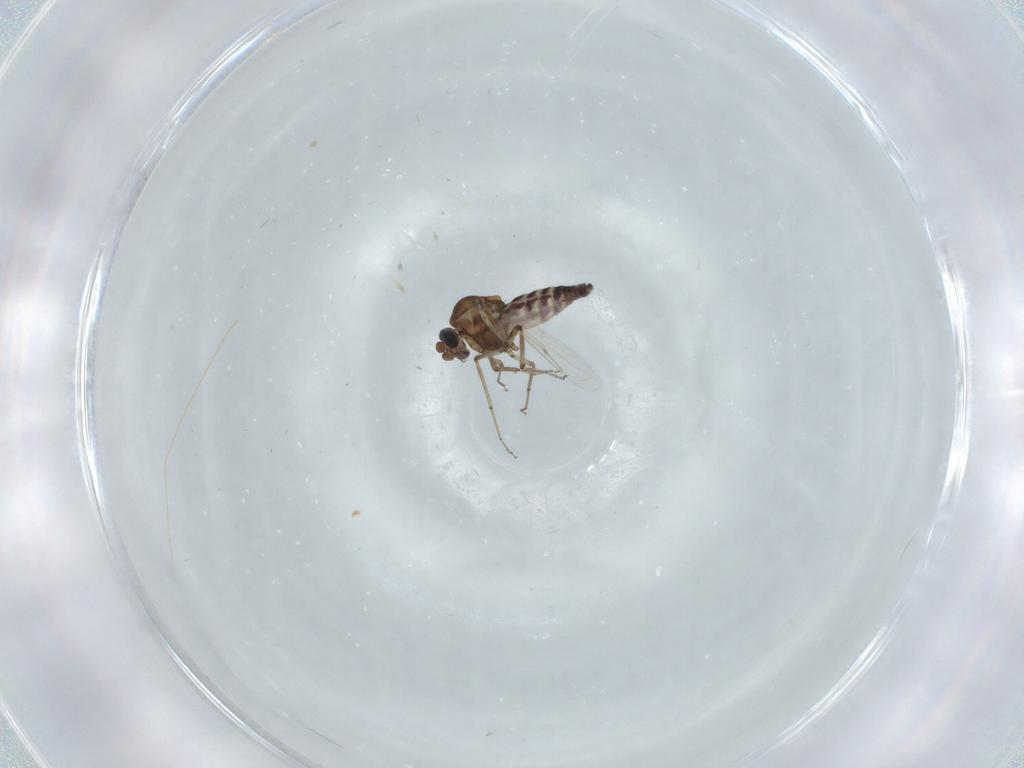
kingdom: Animalia
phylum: Arthropoda
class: Insecta
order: Diptera
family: Ceratopogonidae
